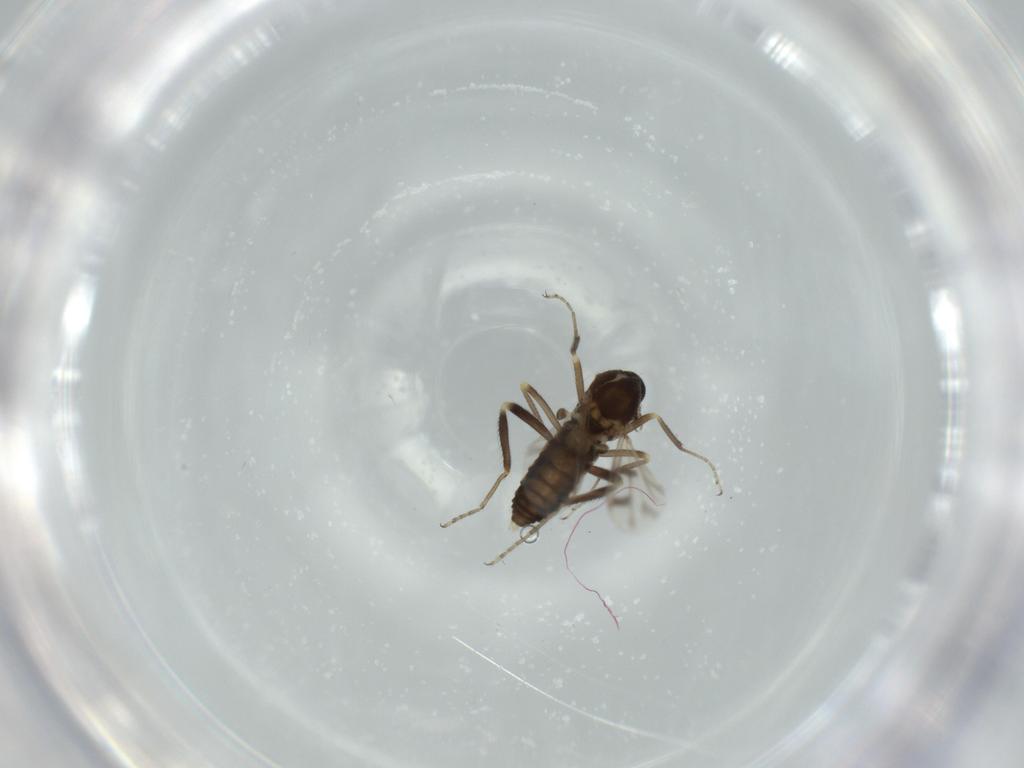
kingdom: Animalia
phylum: Arthropoda
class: Insecta
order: Diptera
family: Ceratopogonidae
